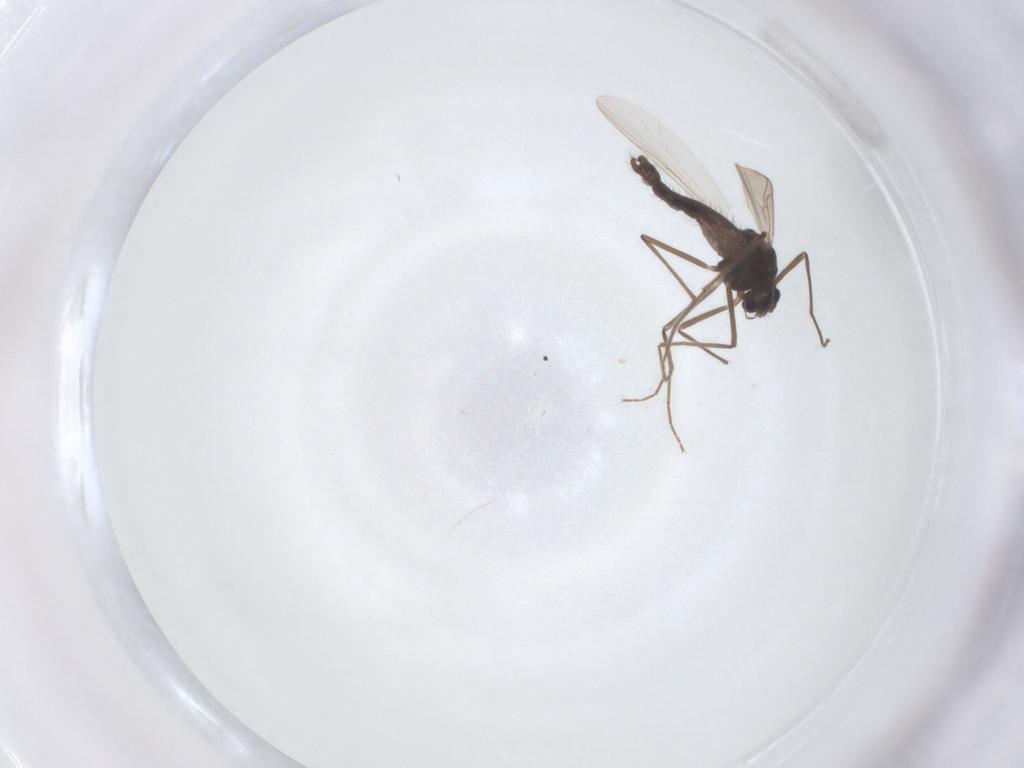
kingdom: Animalia
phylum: Arthropoda
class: Insecta
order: Diptera
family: Chironomidae
